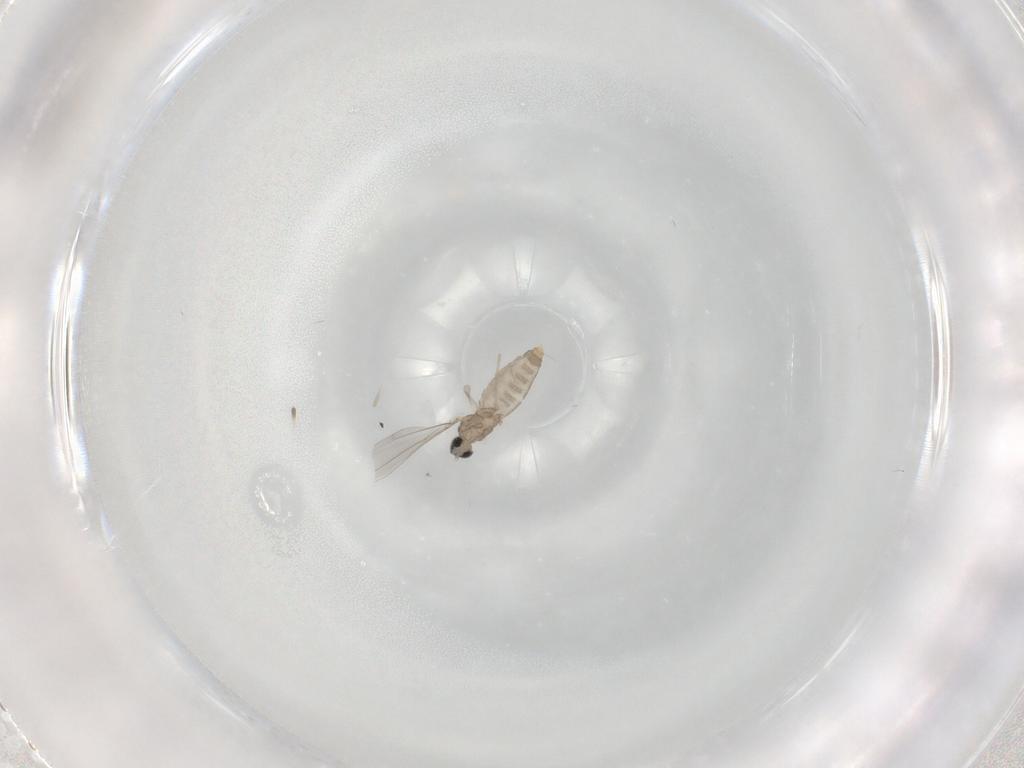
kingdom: Animalia
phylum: Arthropoda
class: Insecta
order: Diptera
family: Cecidomyiidae
